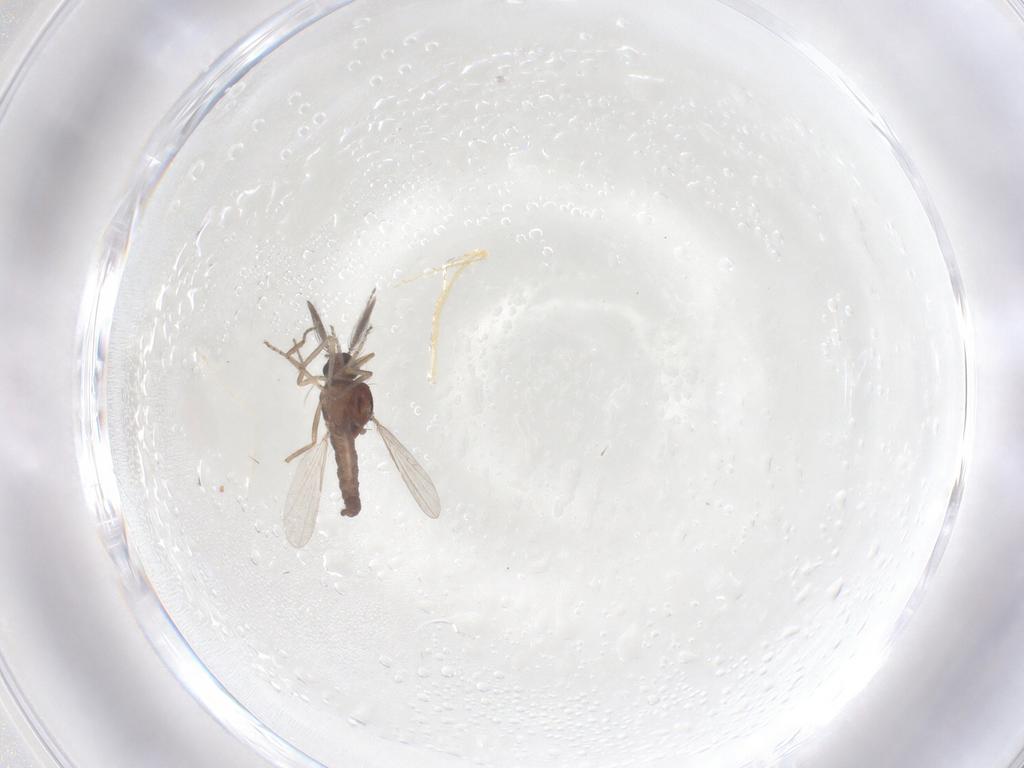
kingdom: Animalia
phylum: Arthropoda
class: Insecta
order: Diptera
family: Ceratopogonidae
